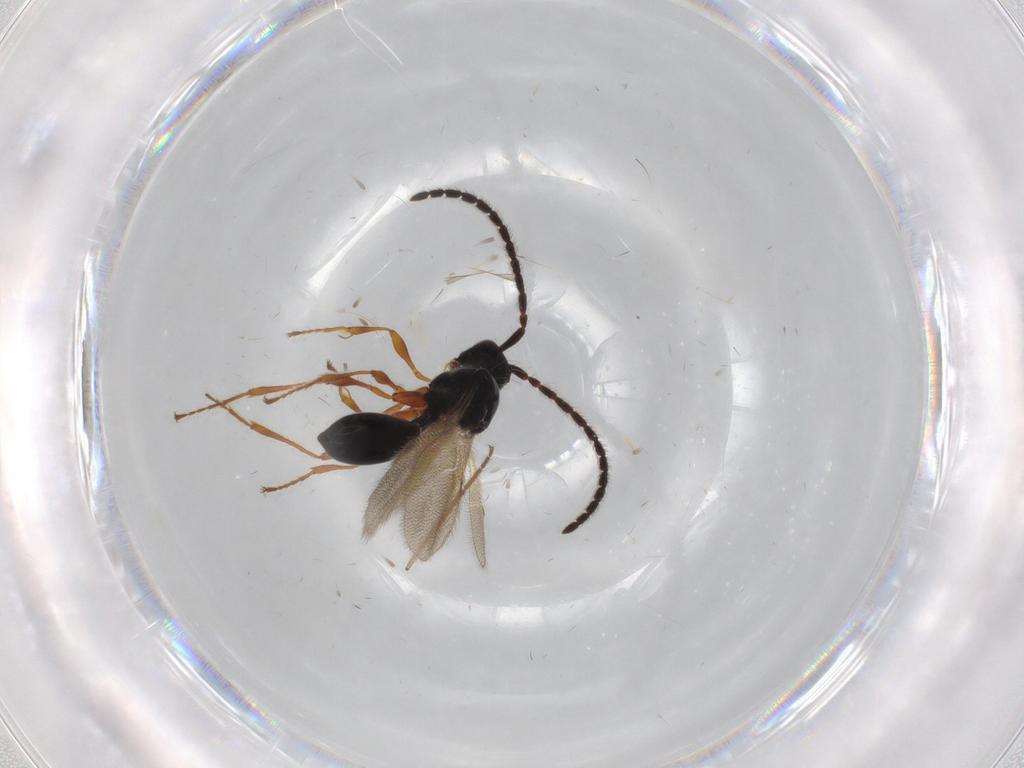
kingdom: Animalia
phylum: Arthropoda
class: Insecta
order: Hymenoptera
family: Diapriidae
